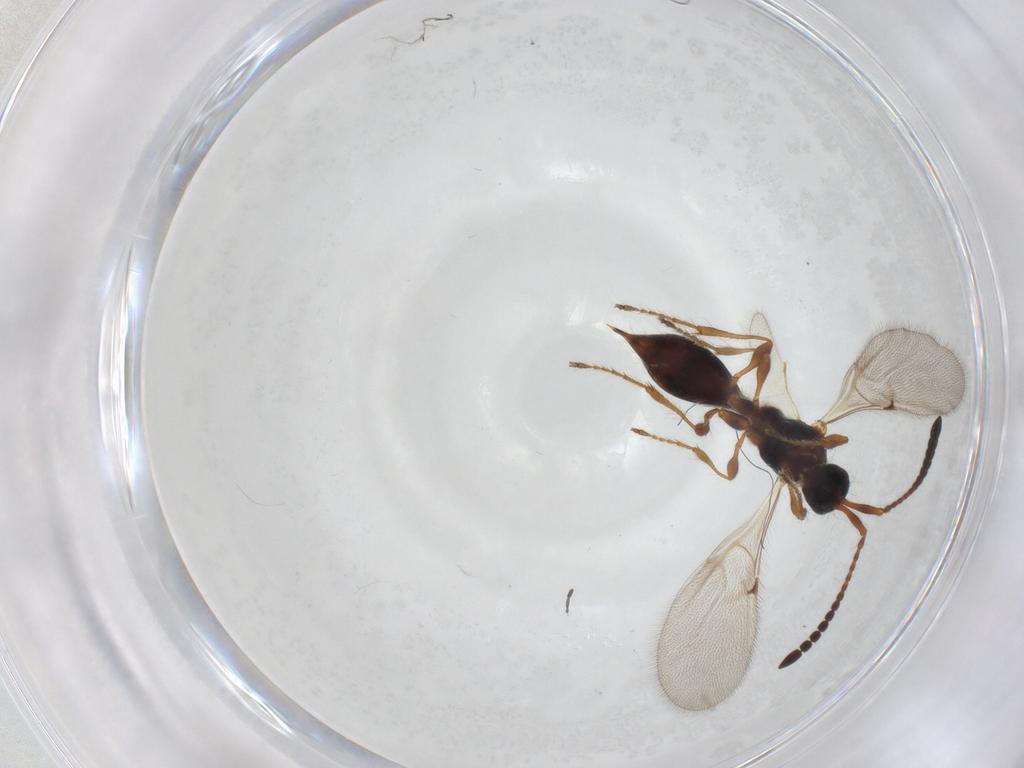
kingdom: Animalia
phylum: Arthropoda
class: Insecta
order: Hymenoptera
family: Diapriidae
